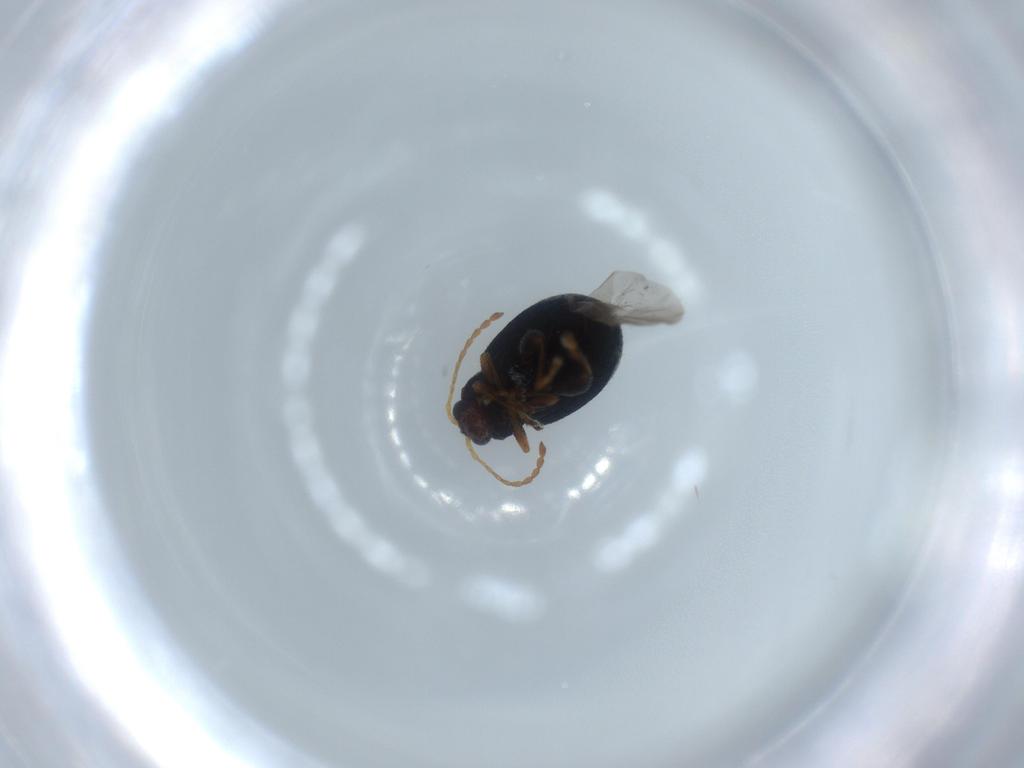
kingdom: Animalia
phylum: Arthropoda
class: Insecta
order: Coleoptera
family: Chrysomelidae
